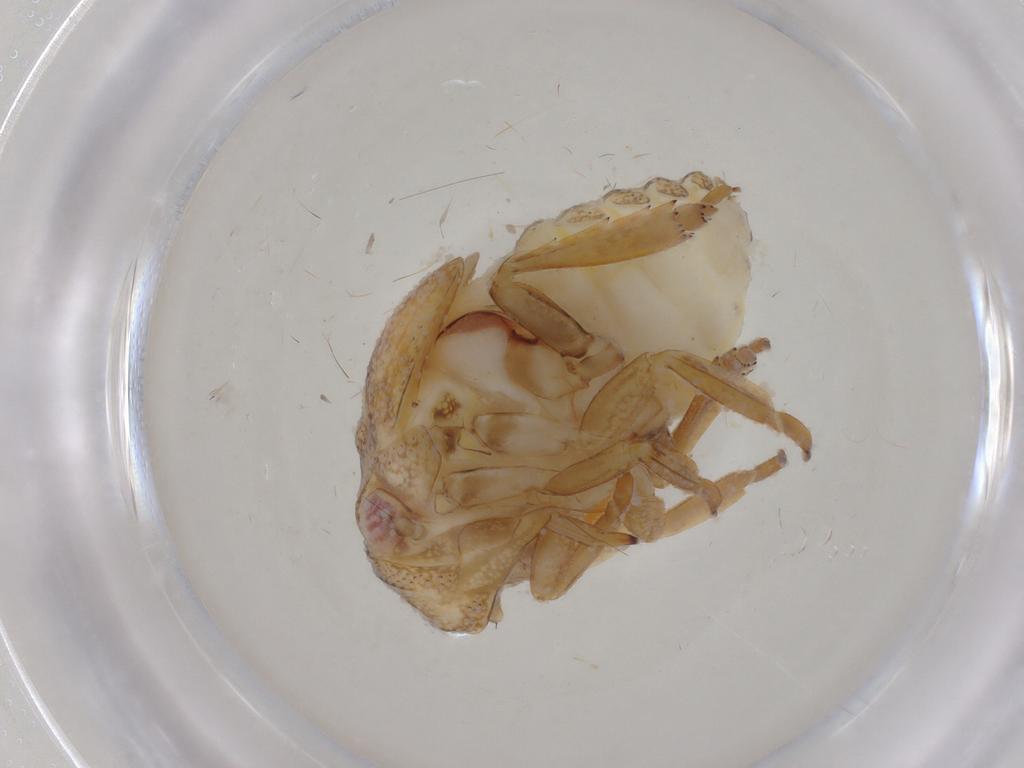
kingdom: Animalia
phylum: Arthropoda
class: Insecta
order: Hemiptera
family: Acanaloniidae
